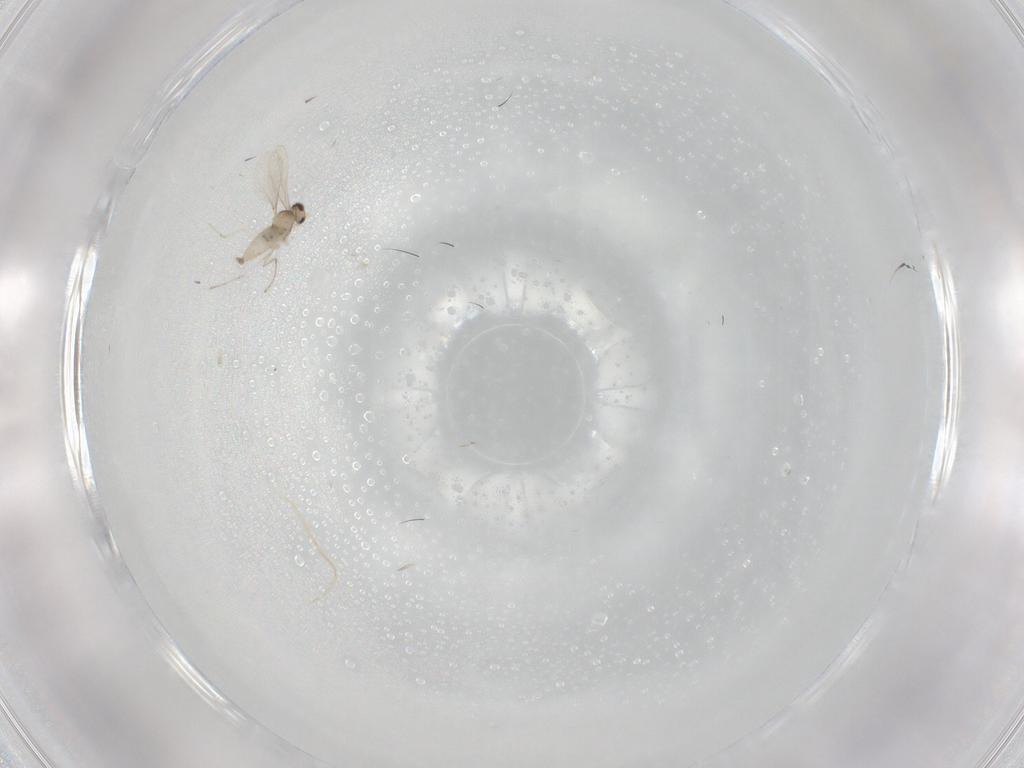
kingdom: Animalia
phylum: Arthropoda
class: Insecta
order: Diptera
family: Cecidomyiidae
